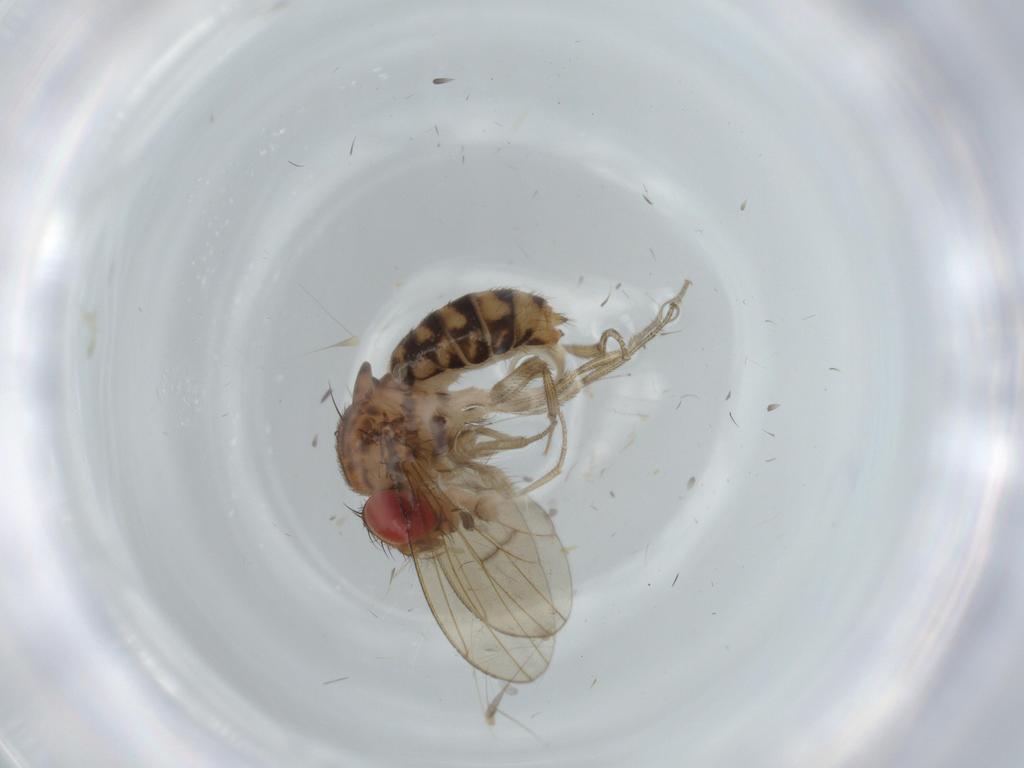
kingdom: Animalia
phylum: Arthropoda
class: Insecta
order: Diptera
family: Drosophilidae
